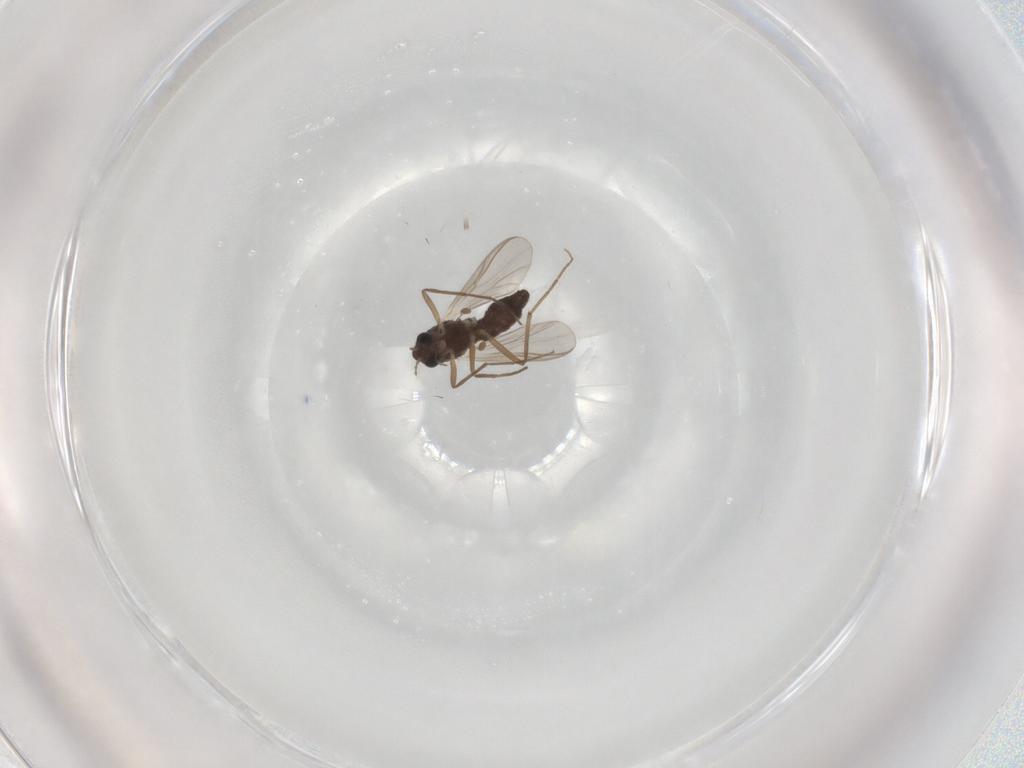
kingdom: Animalia
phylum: Arthropoda
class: Insecta
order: Diptera
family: Chironomidae
